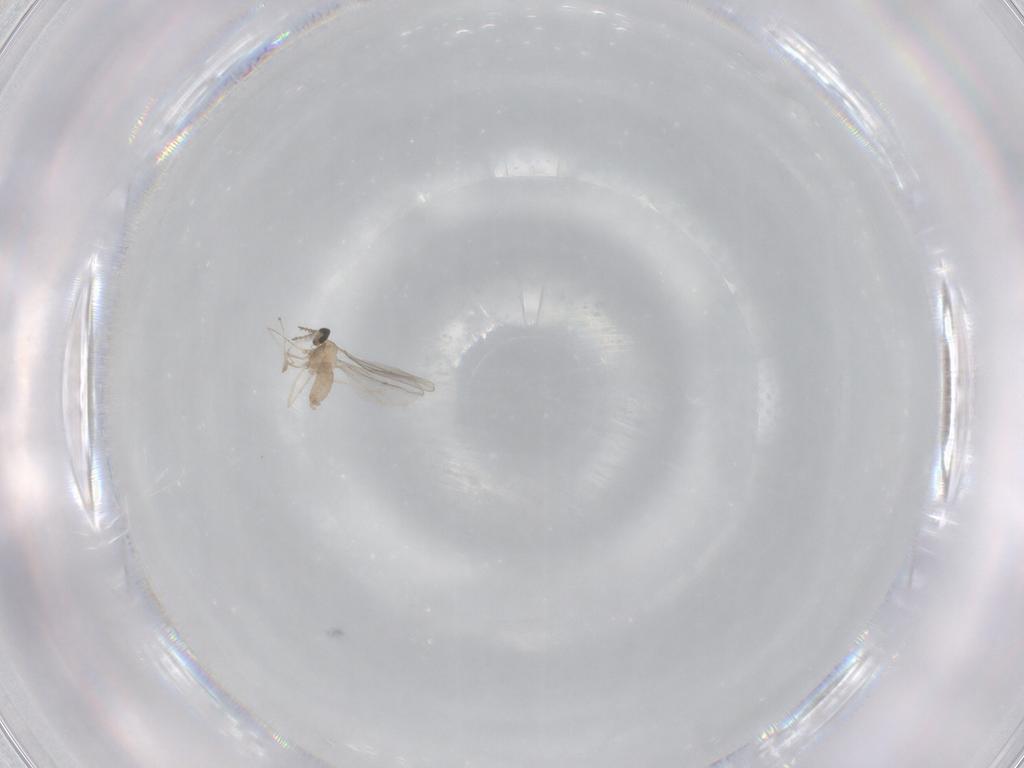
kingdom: Animalia
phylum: Arthropoda
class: Insecta
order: Diptera
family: Cecidomyiidae
